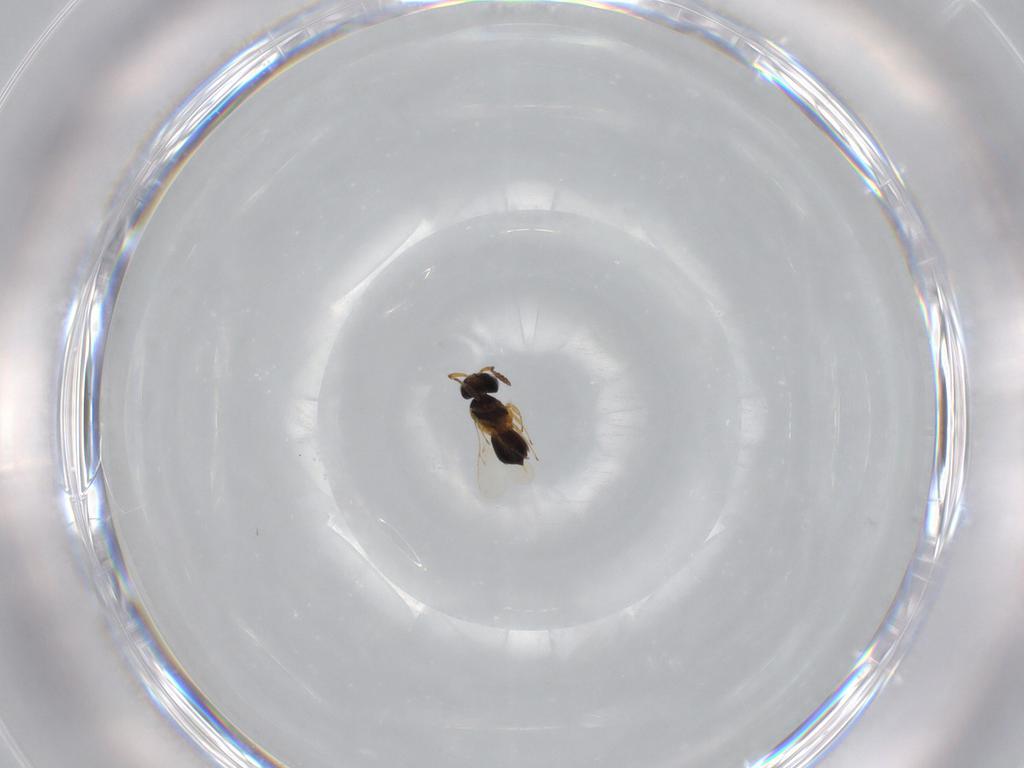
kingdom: Animalia
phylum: Arthropoda
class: Insecta
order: Hymenoptera
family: Scelionidae
